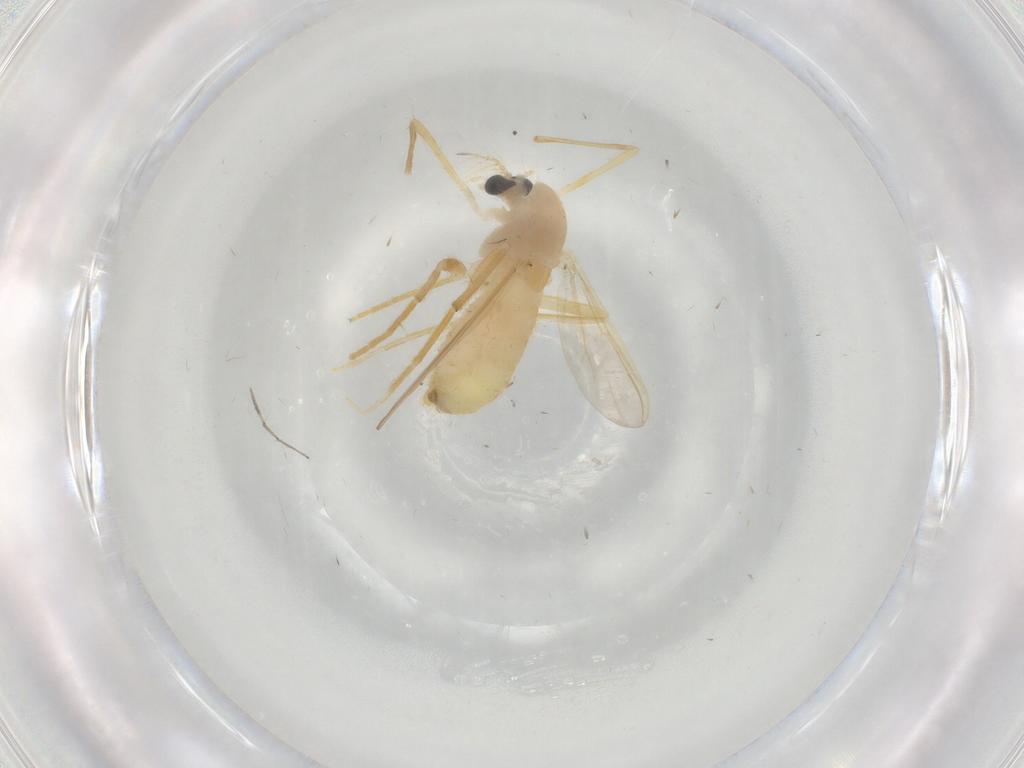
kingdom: Animalia
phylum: Arthropoda
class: Insecta
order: Diptera
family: Chironomidae
